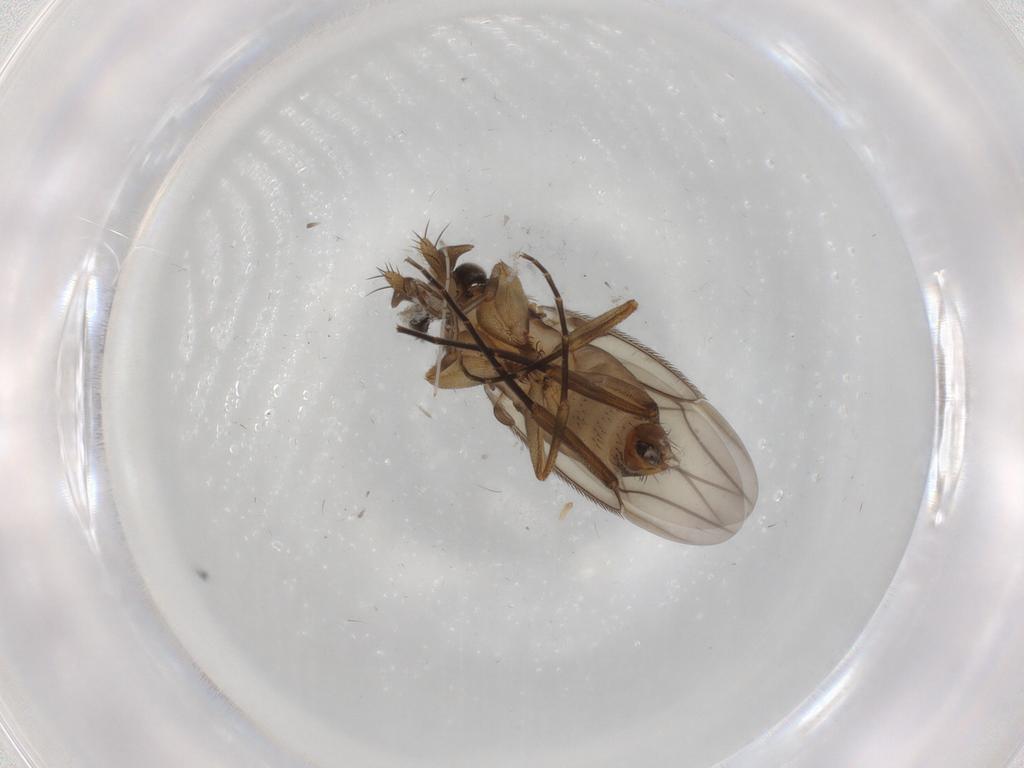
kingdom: Animalia
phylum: Arthropoda
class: Insecta
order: Diptera
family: Phoridae
